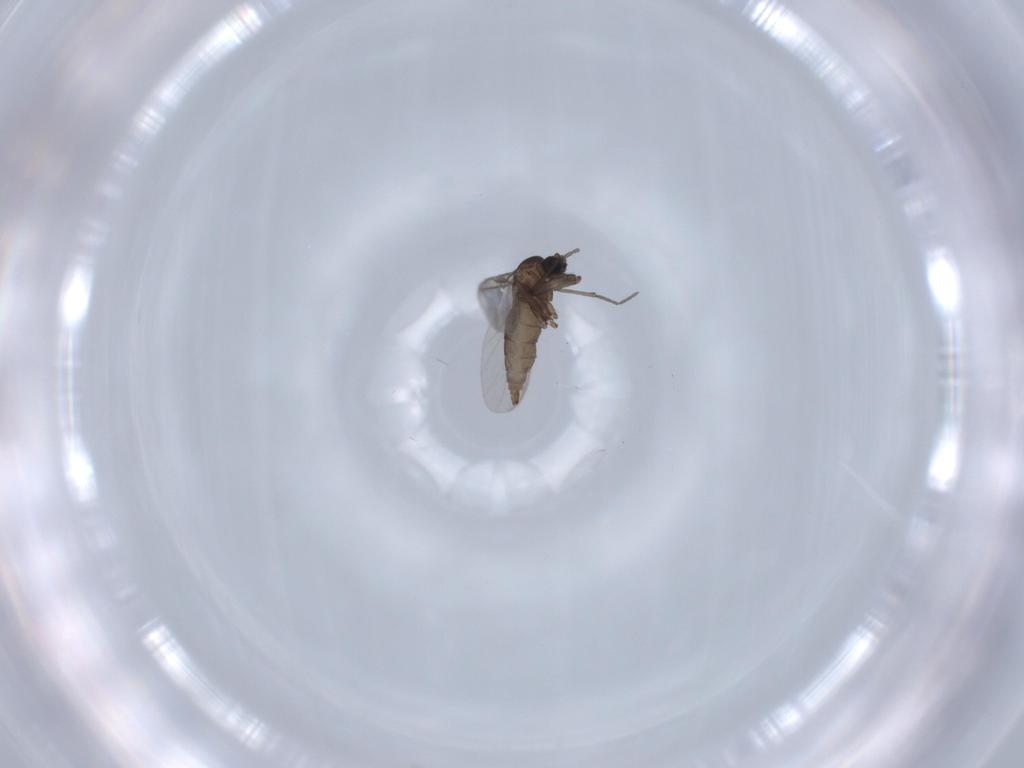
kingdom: Animalia
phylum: Arthropoda
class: Insecta
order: Diptera
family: Sciaridae
